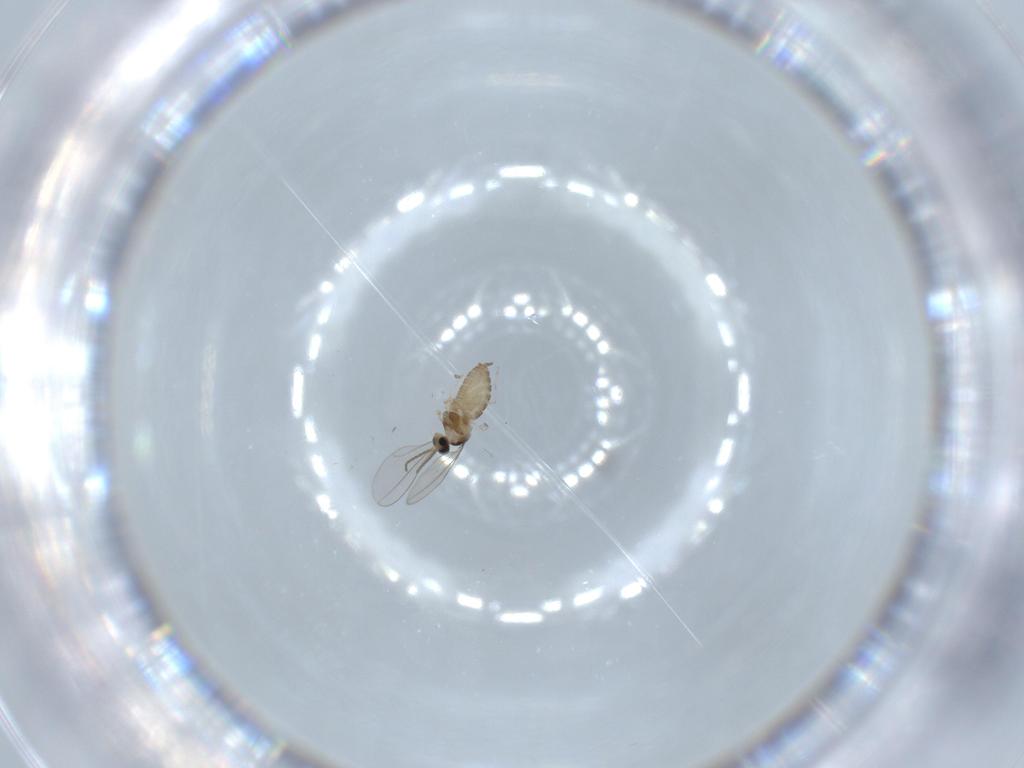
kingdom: Animalia
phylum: Arthropoda
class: Insecta
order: Diptera
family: Cecidomyiidae
